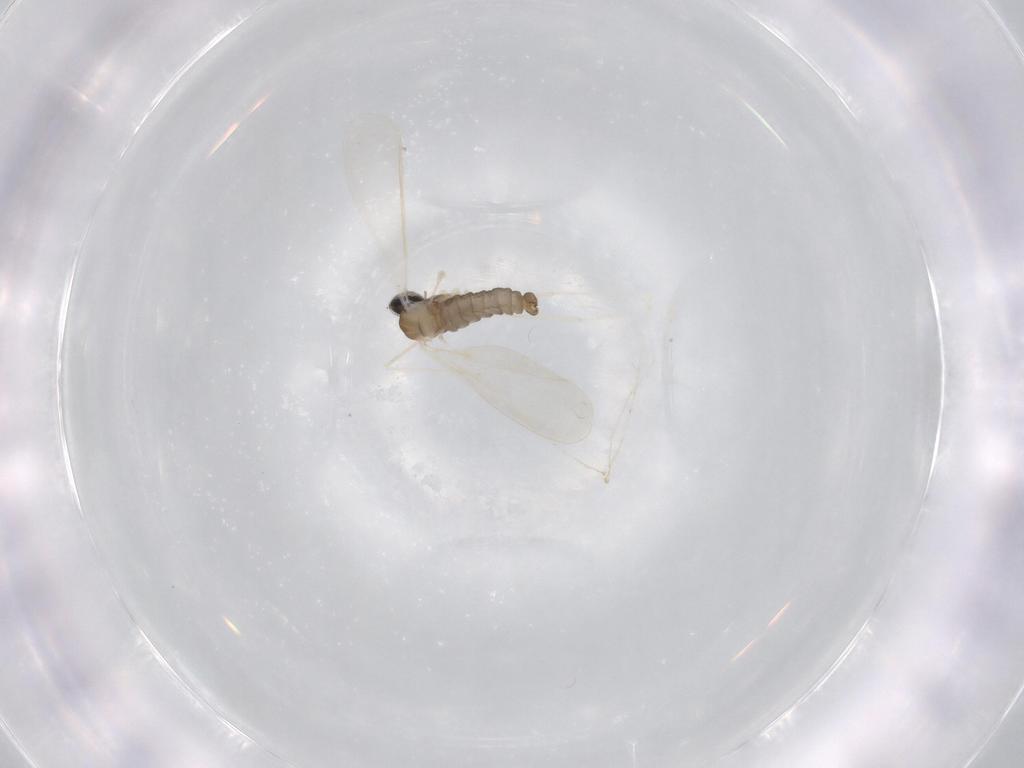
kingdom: Animalia
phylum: Arthropoda
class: Insecta
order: Diptera
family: Cecidomyiidae
